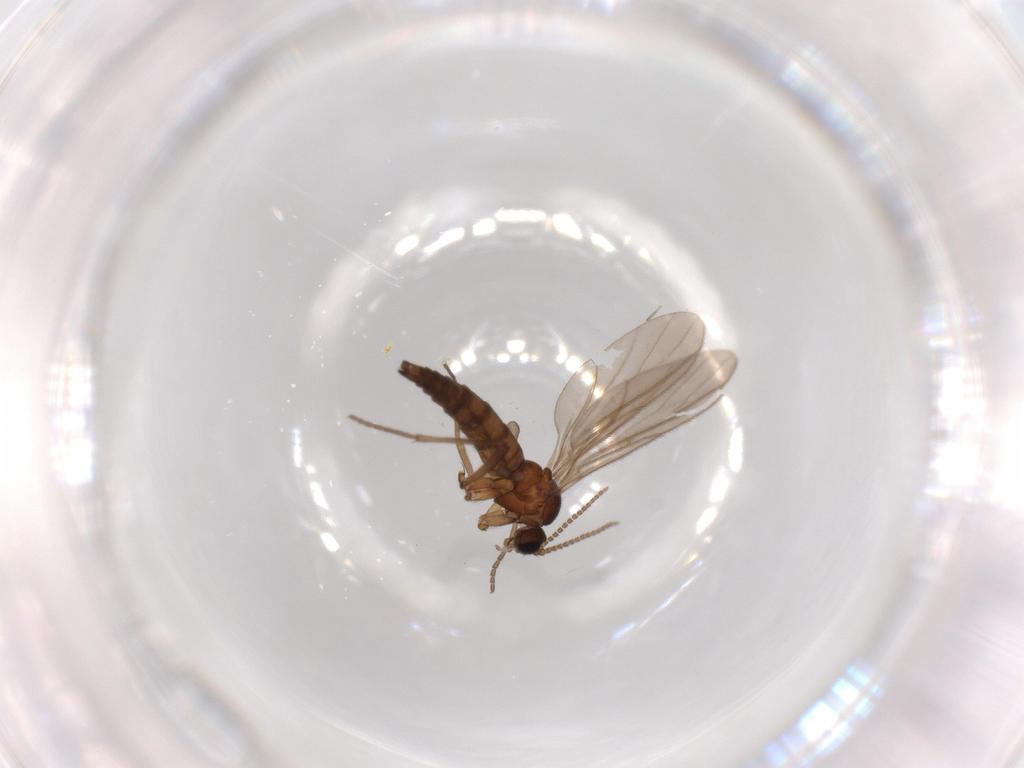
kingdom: Animalia
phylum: Arthropoda
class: Insecta
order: Diptera
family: Sciaridae
